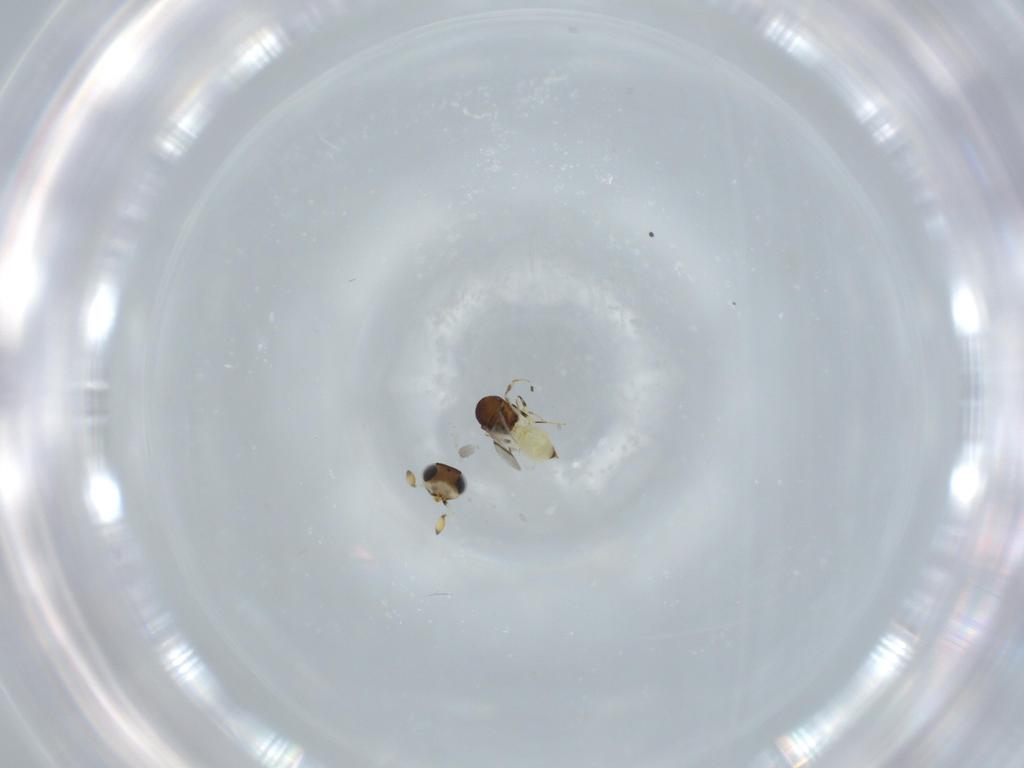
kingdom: Animalia
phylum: Arthropoda
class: Insecta
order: Hymenoptera
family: Scelionidae
